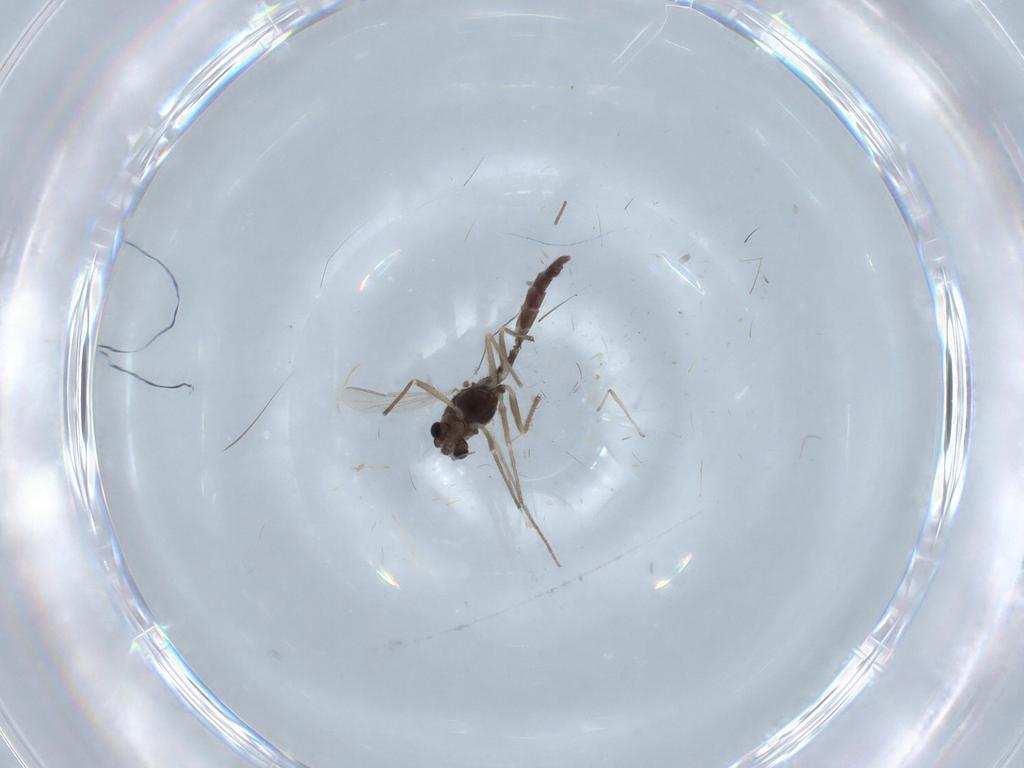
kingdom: Animalia
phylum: Arthropoda
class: Insecta
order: Diptera
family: Chironomidae
